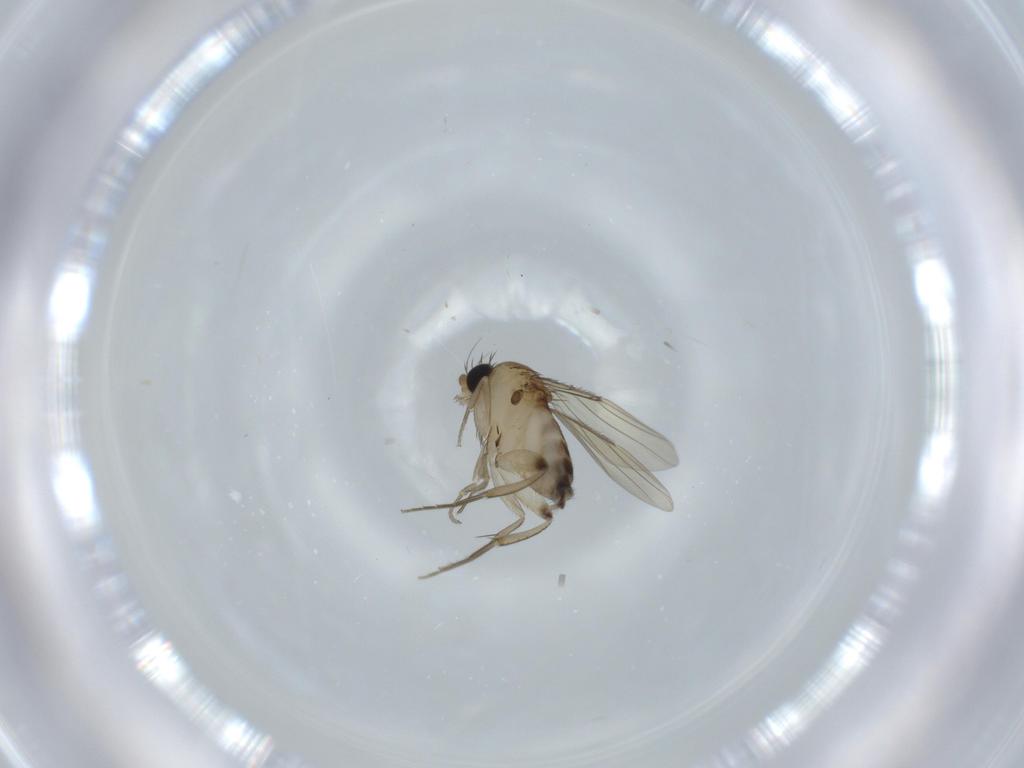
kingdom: Animalia
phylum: Arthropoda
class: Insecta
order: Diptera
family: Phoridae
